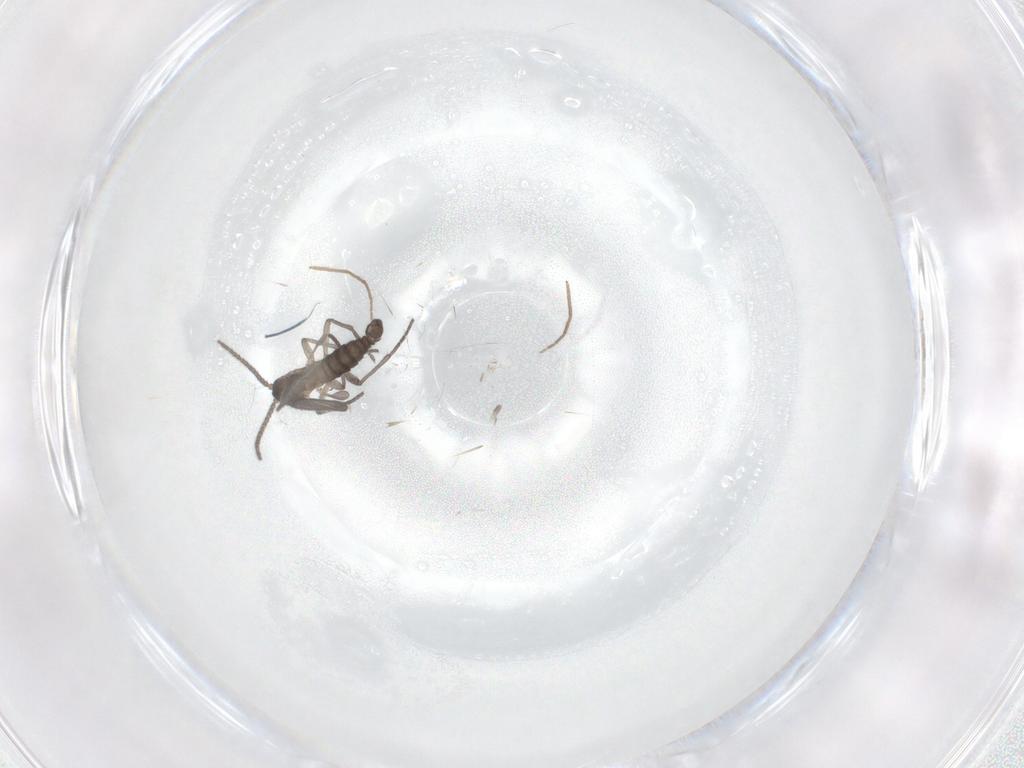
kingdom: Animalia
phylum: Arthropoda
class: Insecta
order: Diptera
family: Sciaridae
